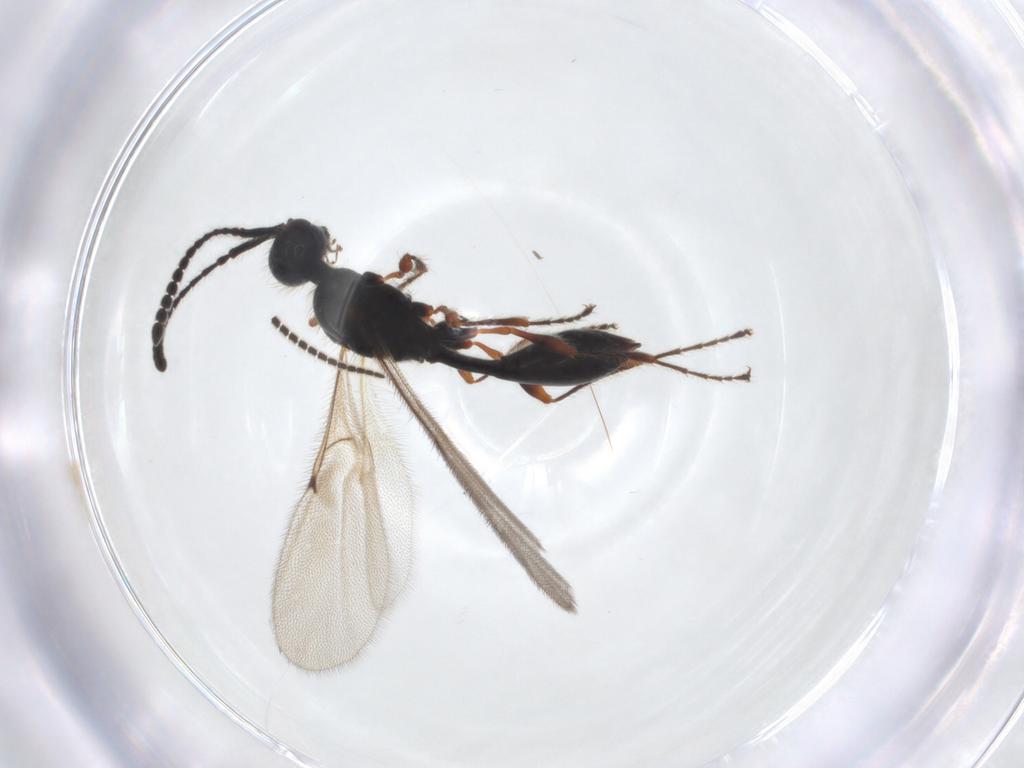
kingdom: Animalia
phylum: Arthropoda
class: Insecta
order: Hymenoptera
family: Diapriidae
